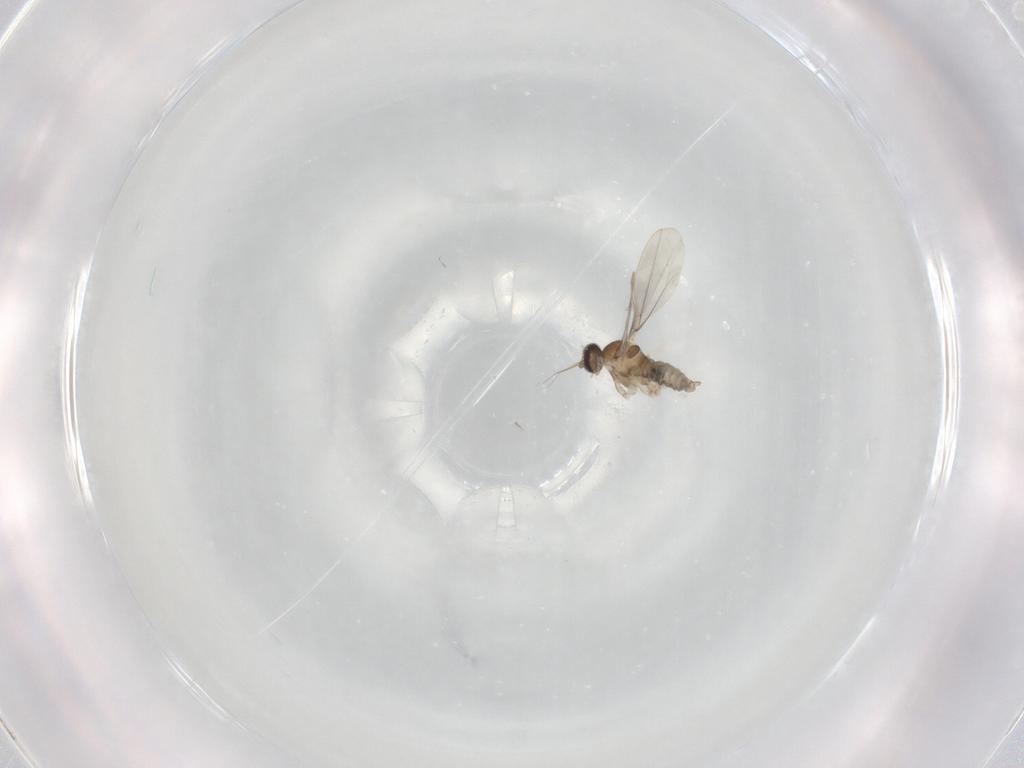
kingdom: Animalia
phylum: Arthropoda
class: Insecta
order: Diptera
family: Cecidomyiidae
